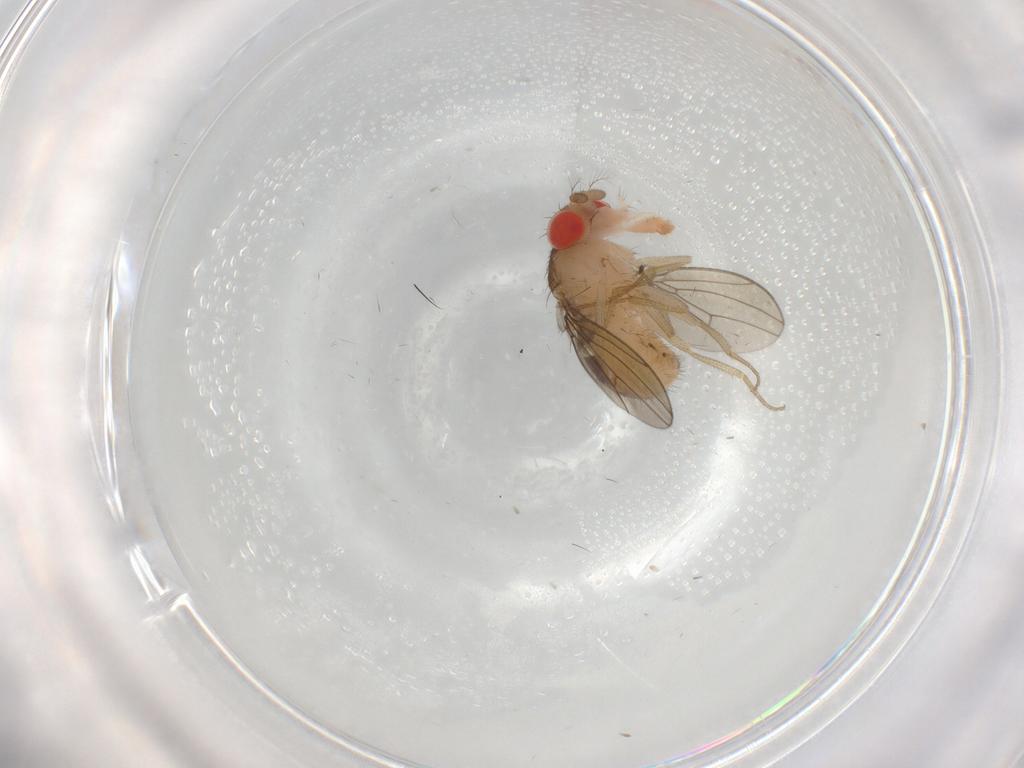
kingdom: Animalia
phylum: Arthropoda
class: Insecta
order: Diptera
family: Drosophilidae
